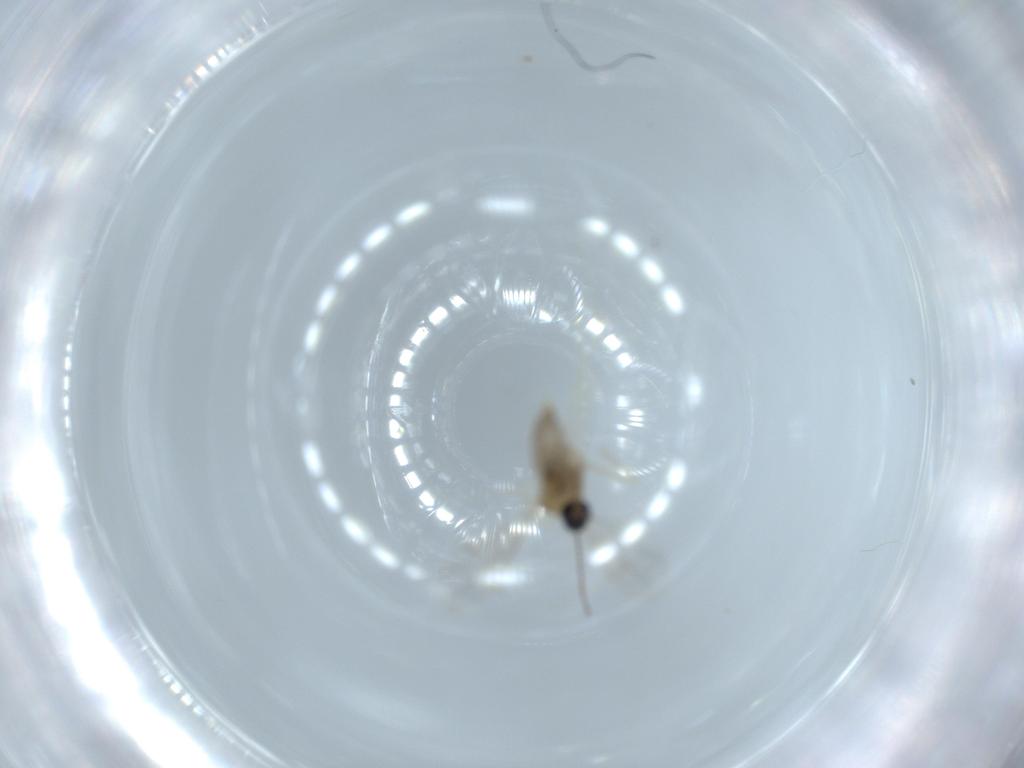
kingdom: Animalia
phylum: Arthropoda
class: Insecta
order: Diptera
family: Cecidomyiidae
